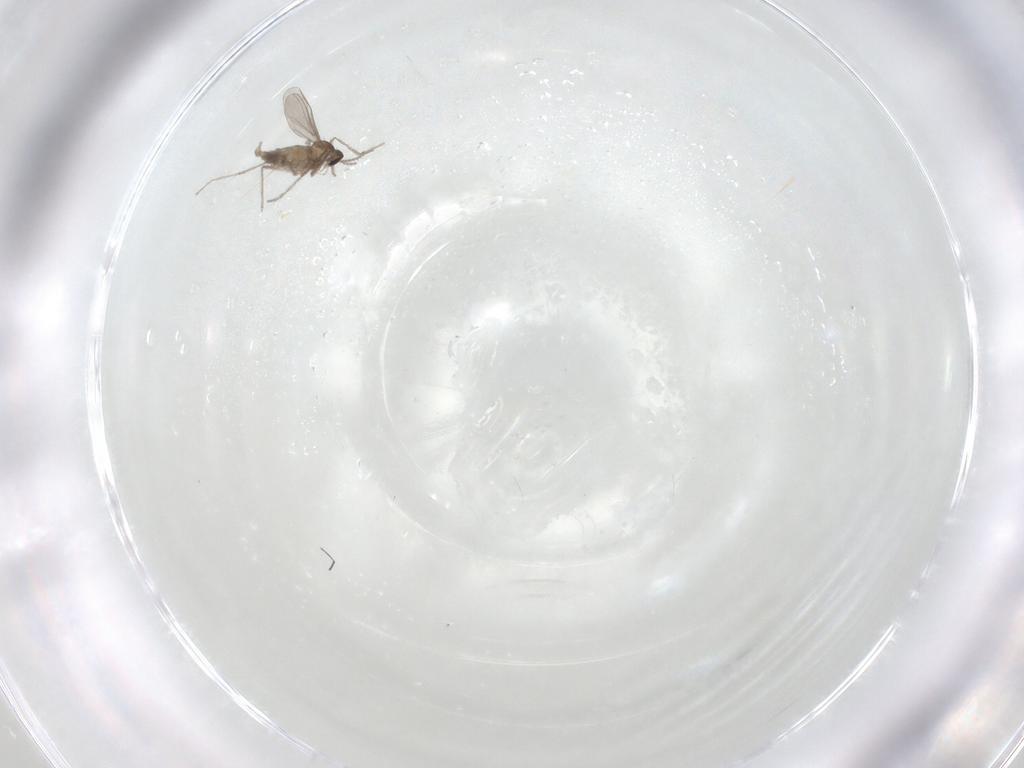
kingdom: Animalia
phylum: Arthropoda
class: Insecta
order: Diptera
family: Cecidomyiidae
